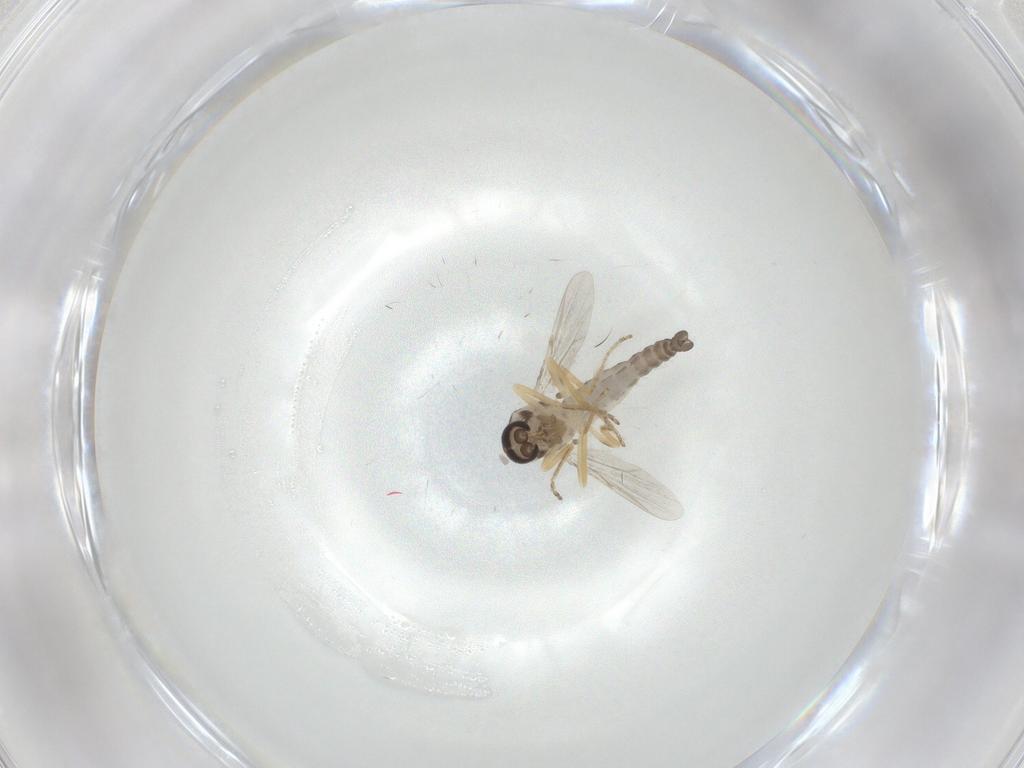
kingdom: Animalia
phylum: Arthropoda
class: Insecta
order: Diptera
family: Ceratopogonidae
